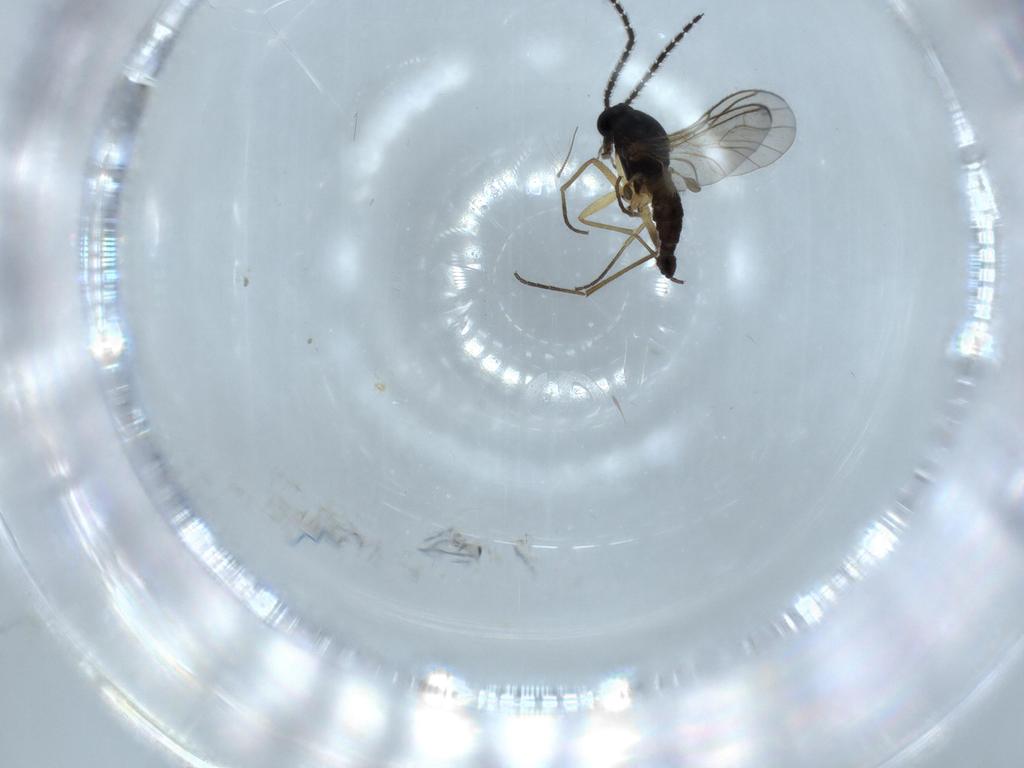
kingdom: Animalia
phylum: Arthropoda
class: Insecta
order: Diptera
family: Sciaridae
